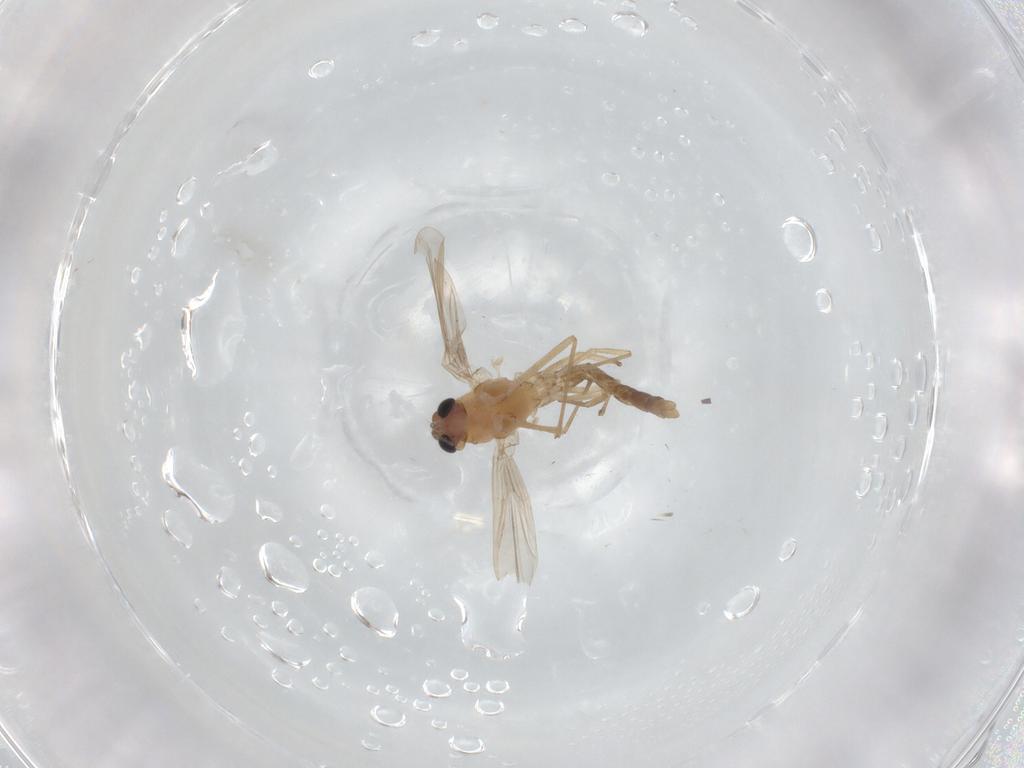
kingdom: Animalia
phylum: Arthropoda
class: Insecta
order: Diptera
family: Chironomidae
